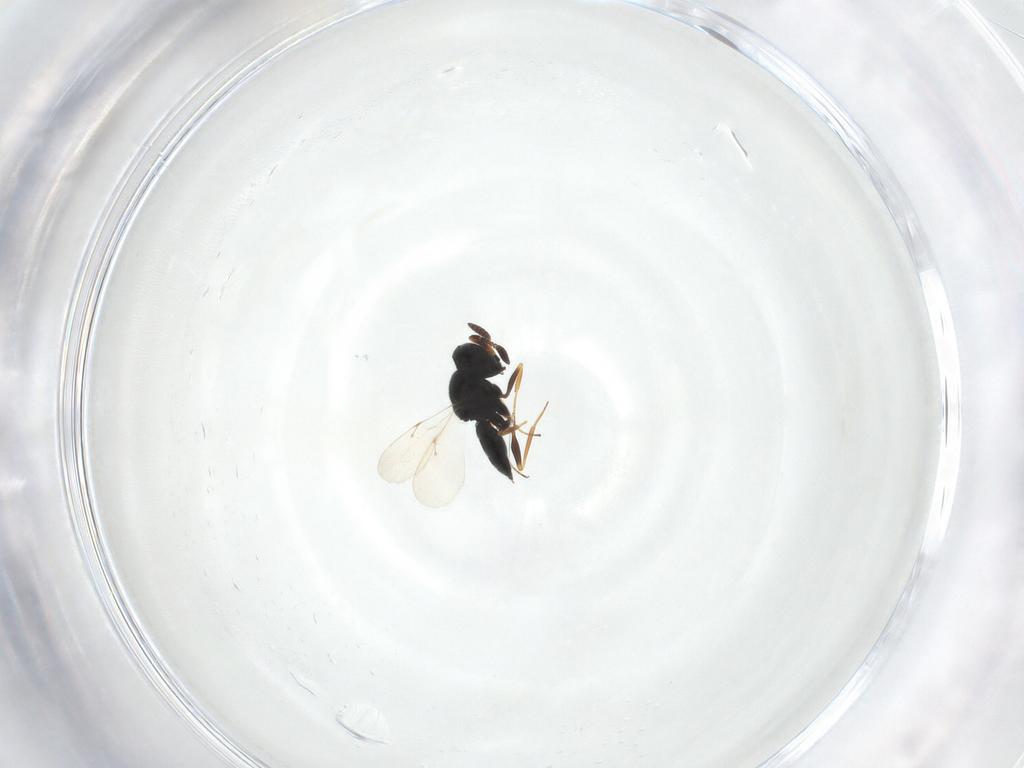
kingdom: Animalia
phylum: Arthropoda
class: Insecta
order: Hymenoptera
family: Scelionidae
